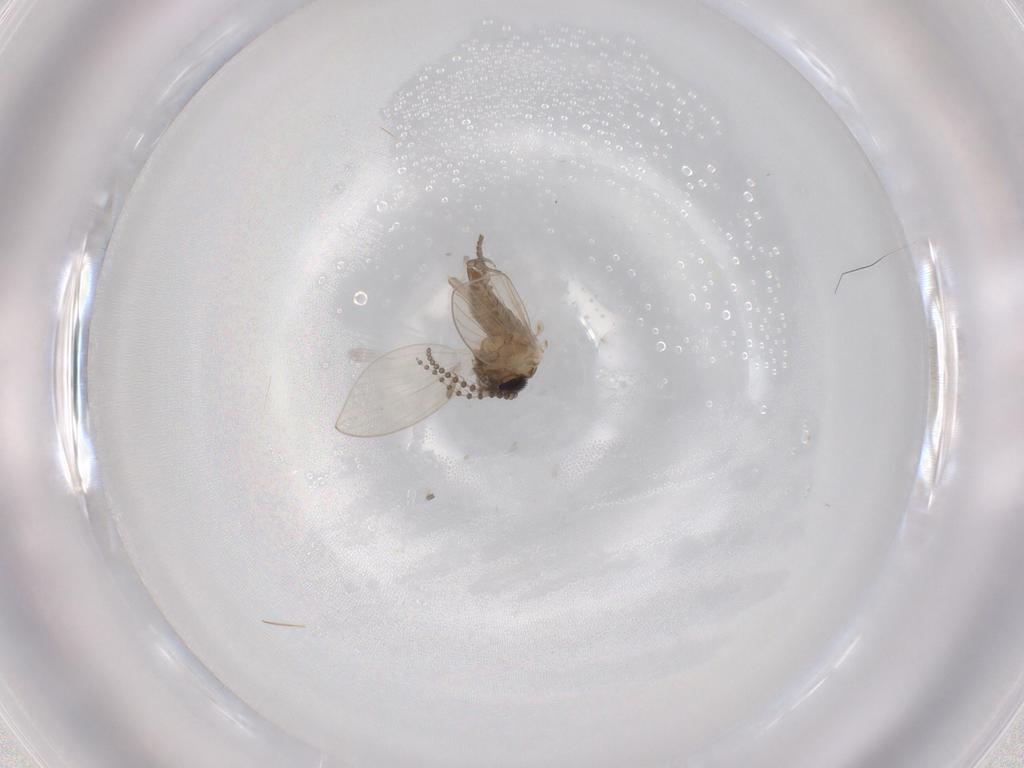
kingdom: Animalia
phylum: Arthropoda
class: Insecta
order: Diptera
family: Psychodidae
